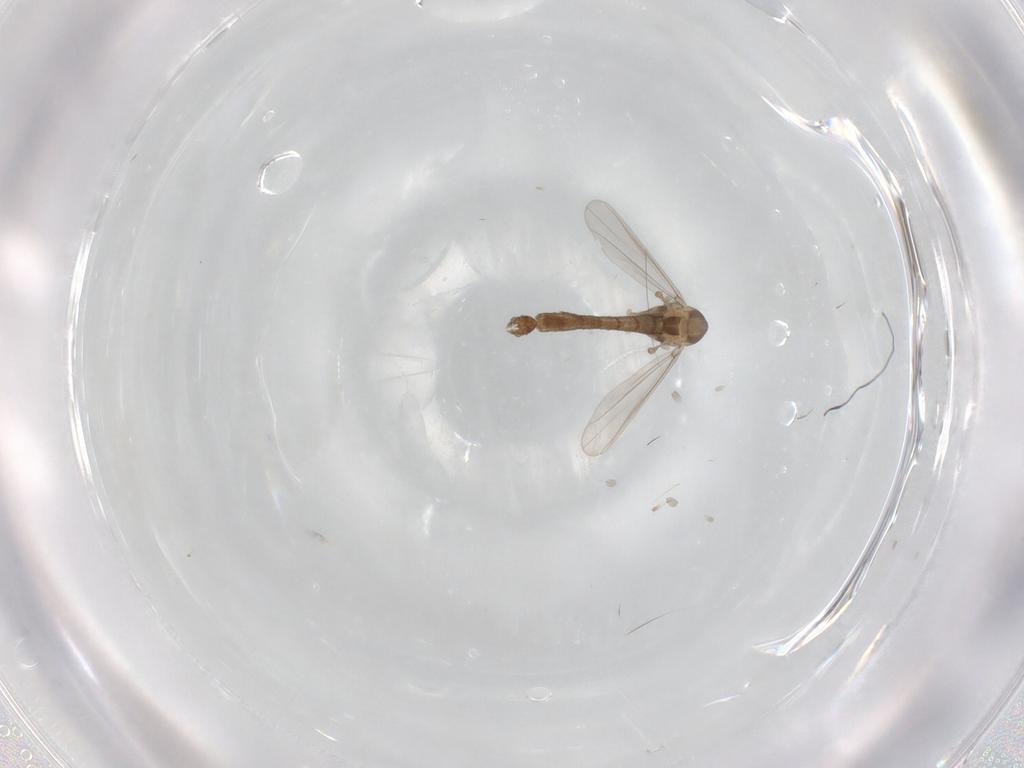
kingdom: Animalia
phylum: Arthropoda
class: Insecta
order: Diptera
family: Chironomidae
